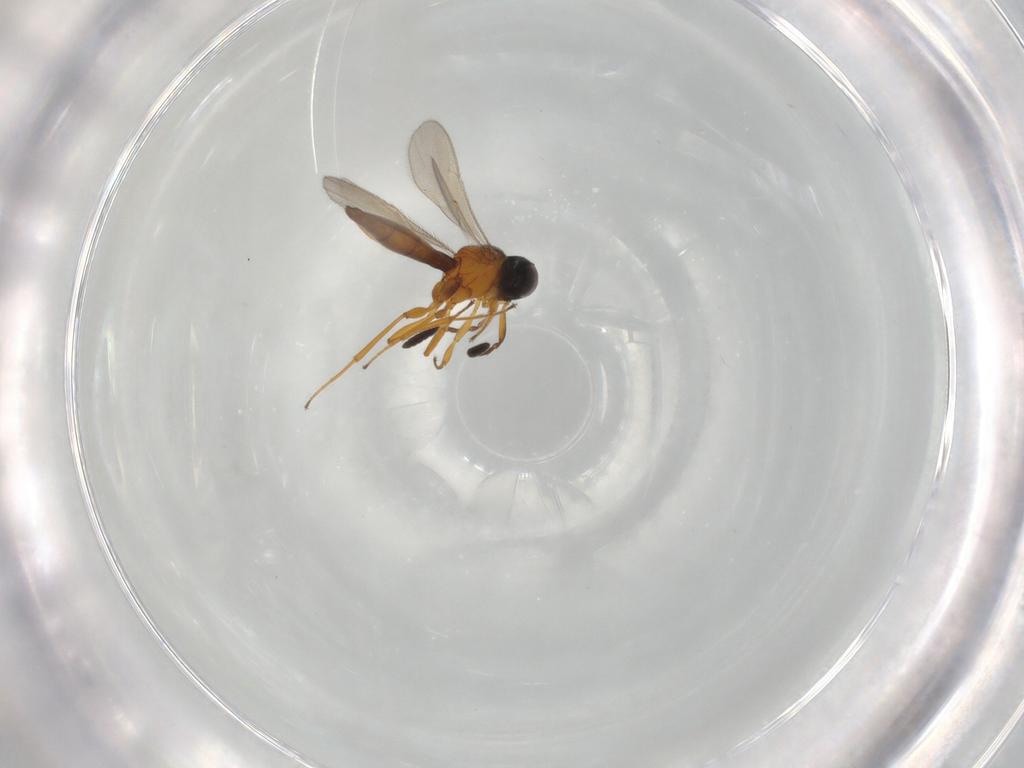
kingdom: Animalia
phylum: Arthropoda
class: Insecta
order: Hymenoptera
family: Scelionidae
